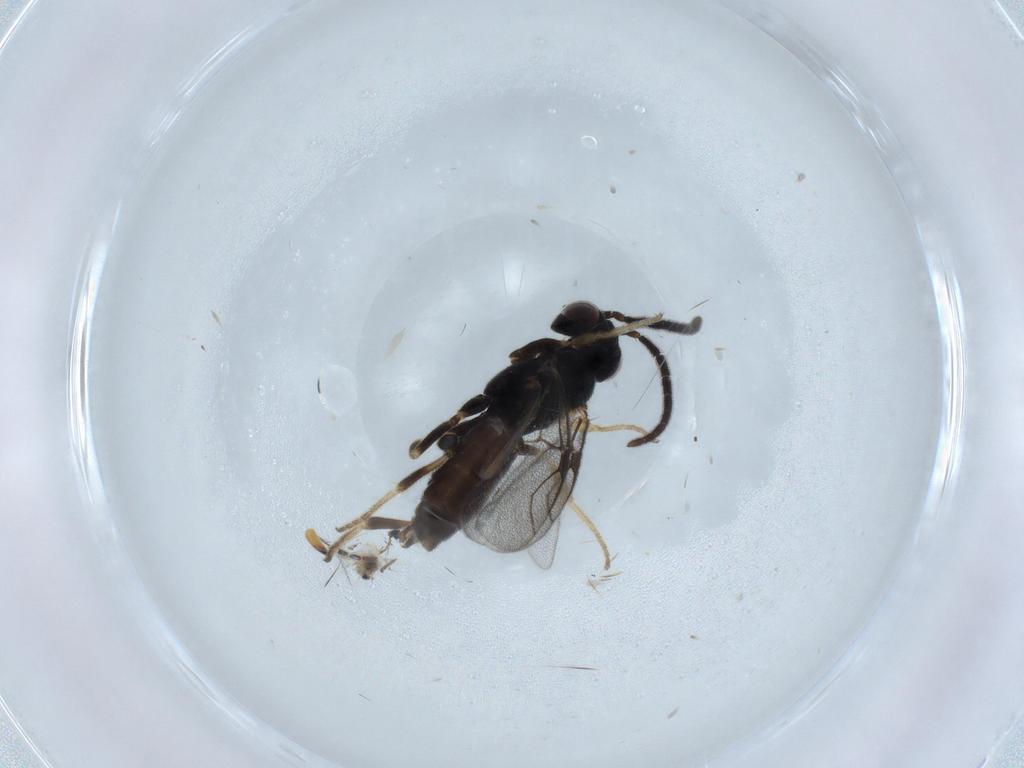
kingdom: Animalia
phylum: Arthropoda
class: Insecta
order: Hymenoptera
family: Dryinidae
